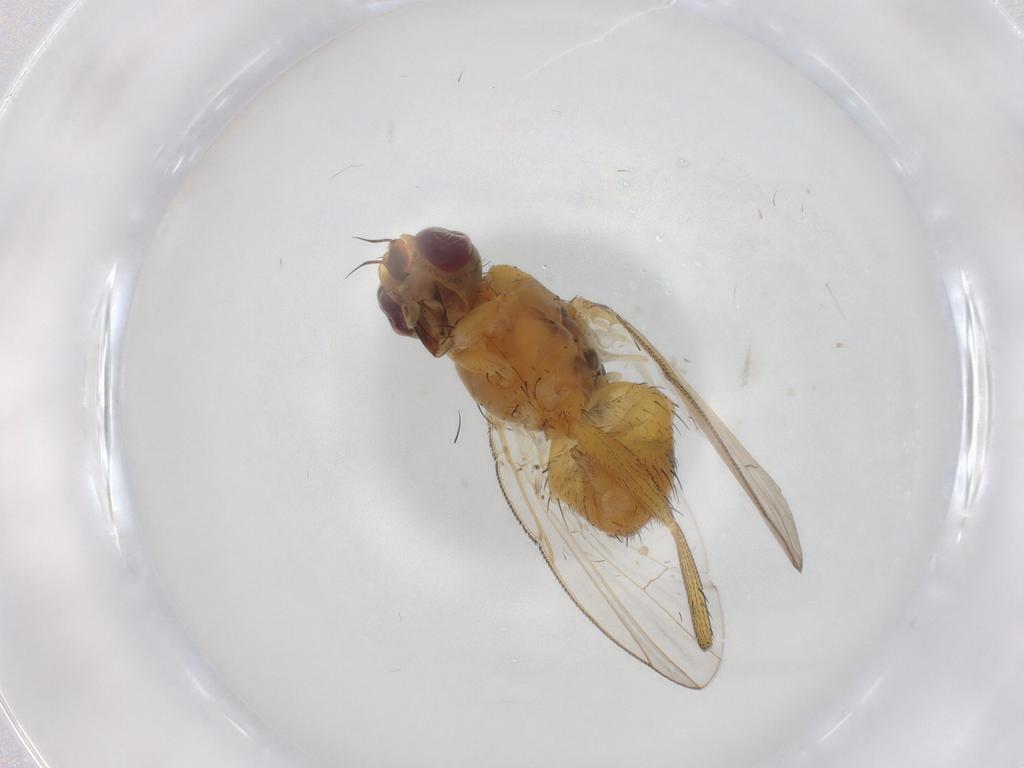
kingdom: Animalia
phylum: Arthropoda
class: Insecta
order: Diptera
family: Muscidae
